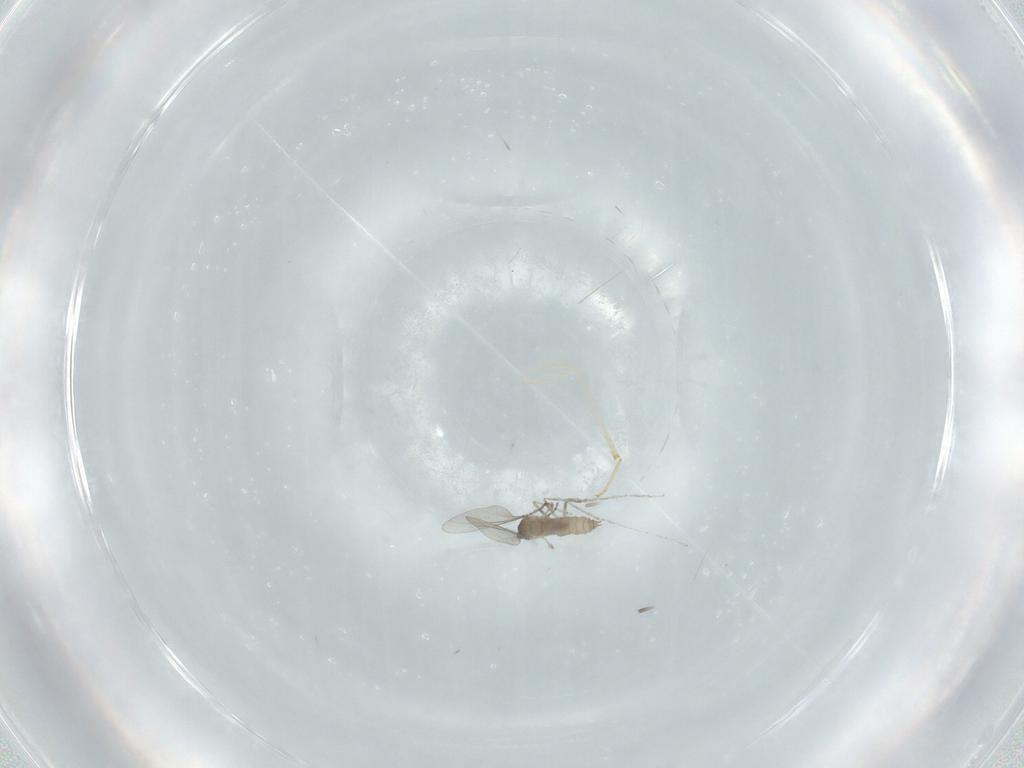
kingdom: Animalia
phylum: Arthropoda
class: Insecta
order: Diptera
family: Cecidomyiidae
